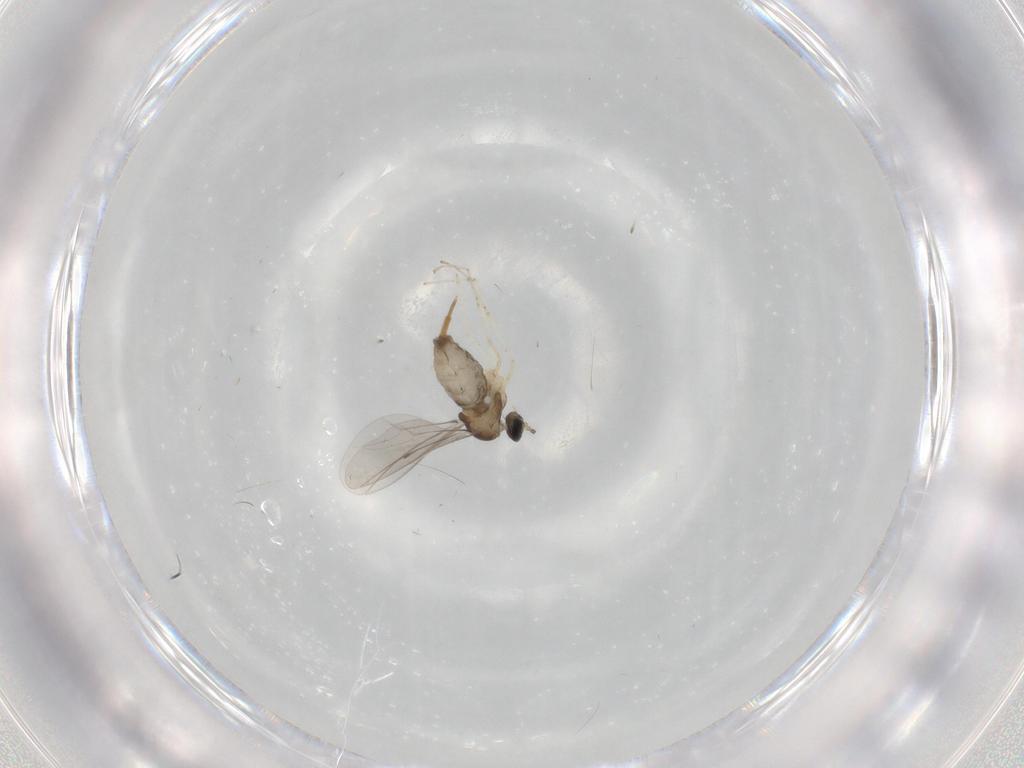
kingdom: Animalia
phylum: Arthropoda
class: Insecta
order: Diptera
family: Cecidomyiidae
